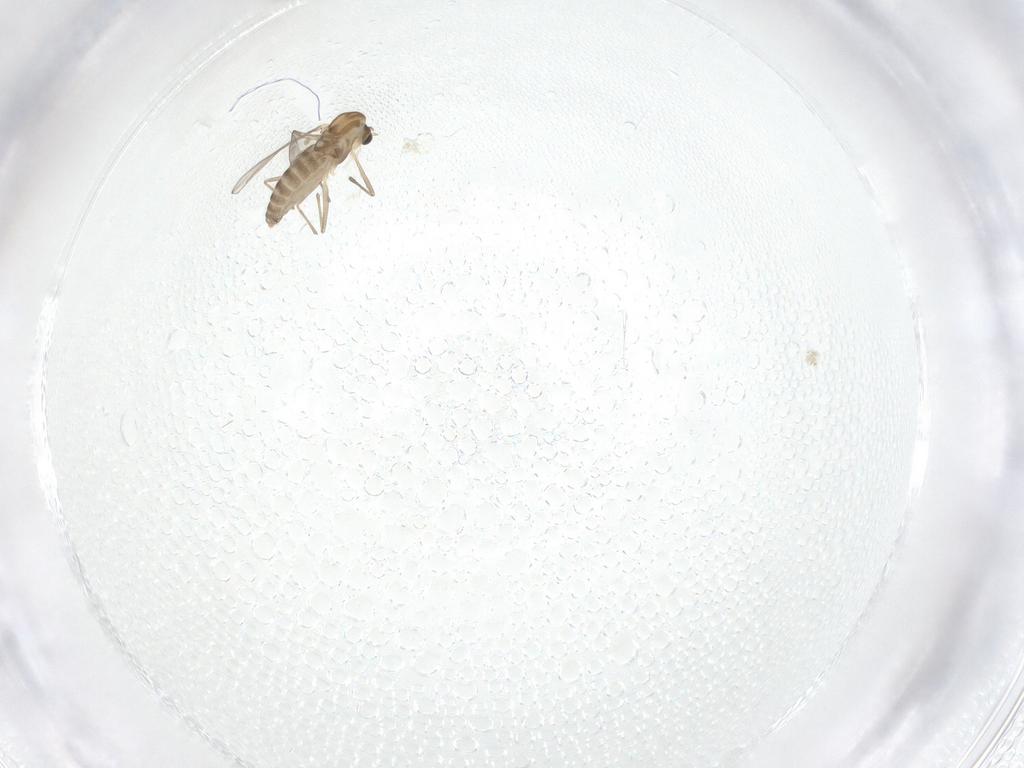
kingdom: Animalia
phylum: Arthropoda
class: Insecta
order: Diptera
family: Chironomidae
